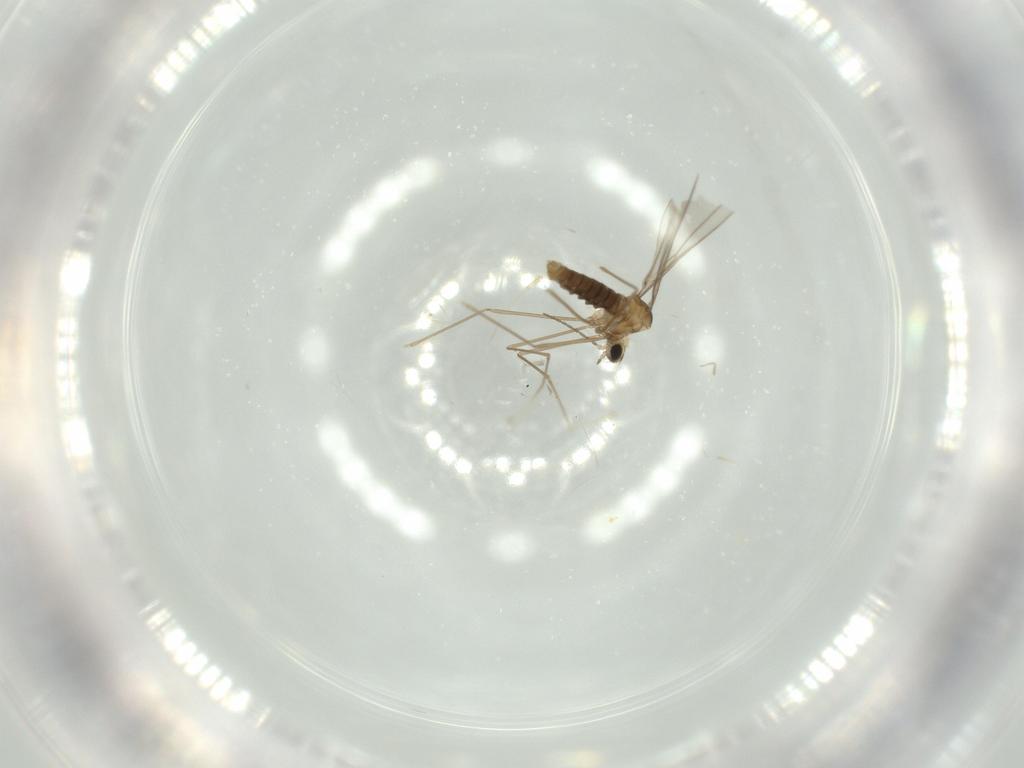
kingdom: Animalia
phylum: Arthropoda
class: Insecta
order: Diptera
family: Cecidomyiidae
